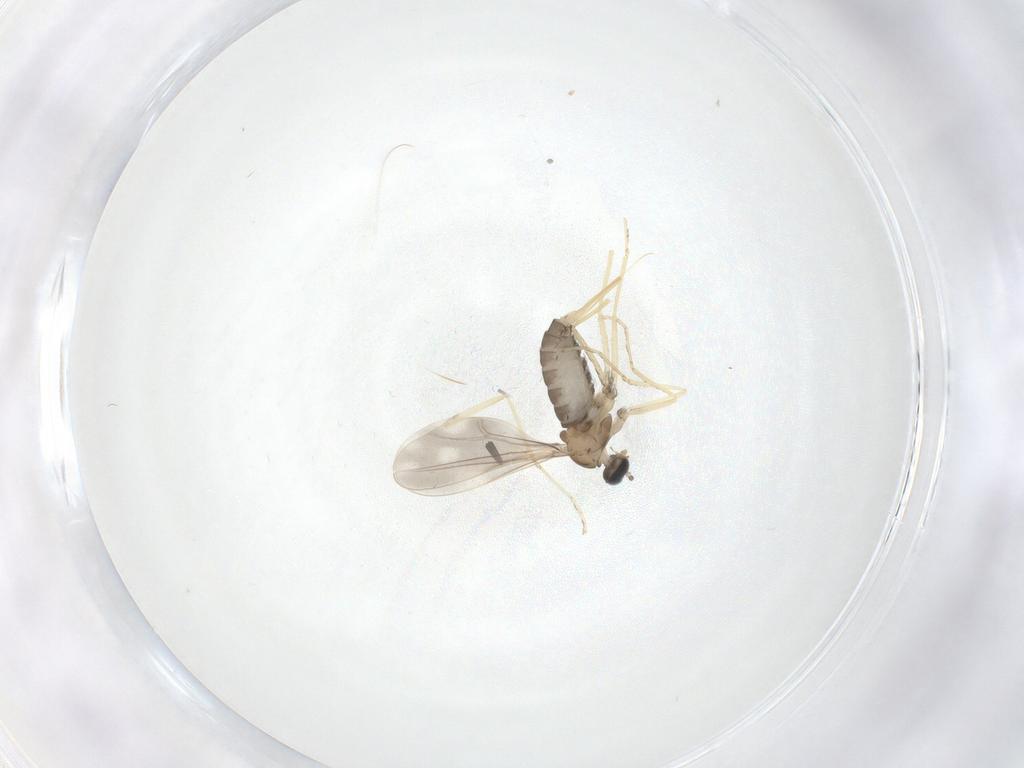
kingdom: Animalia
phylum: Arthropoda
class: Insecta
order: Diptera
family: Cecidomyiidae
